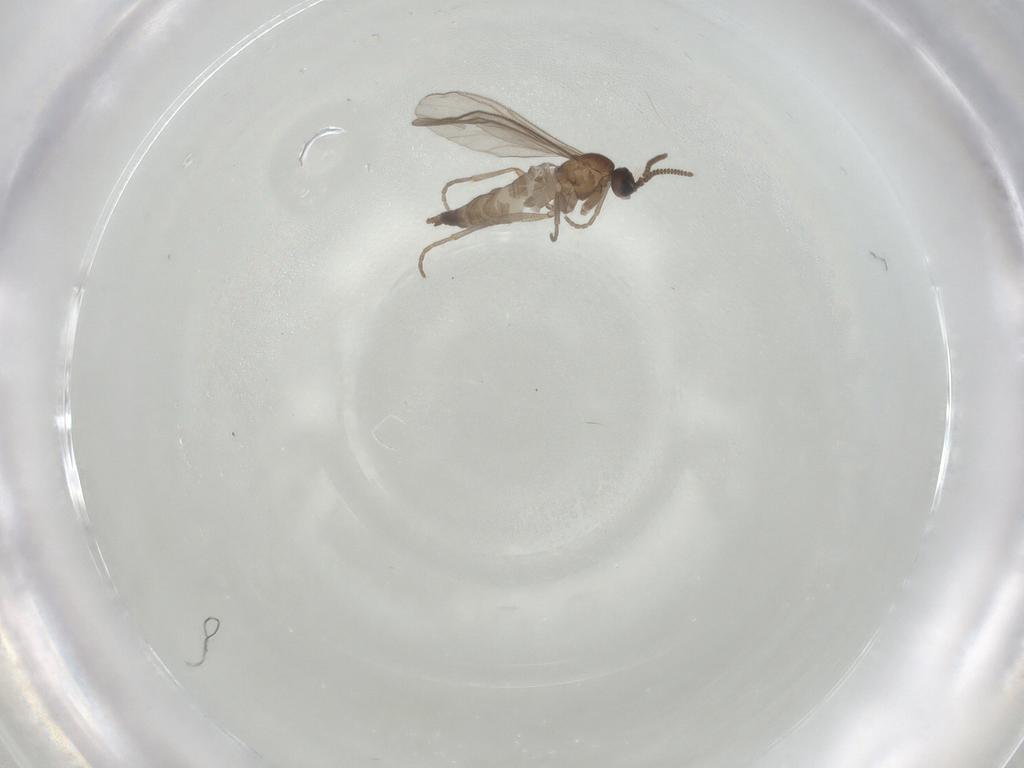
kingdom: Animalia
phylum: Arthropoda
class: Insecta
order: Diptera
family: Sciaridae
